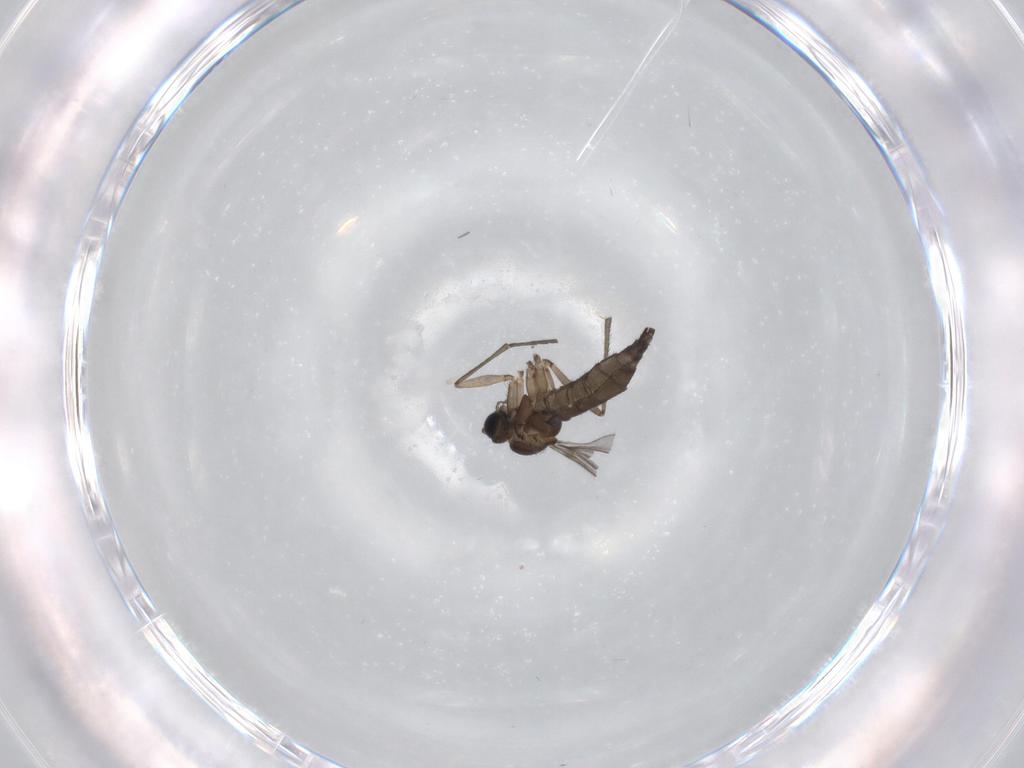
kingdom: Animalia
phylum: Arthropoda
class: Insecta
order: Diptera
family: Sciaridae
